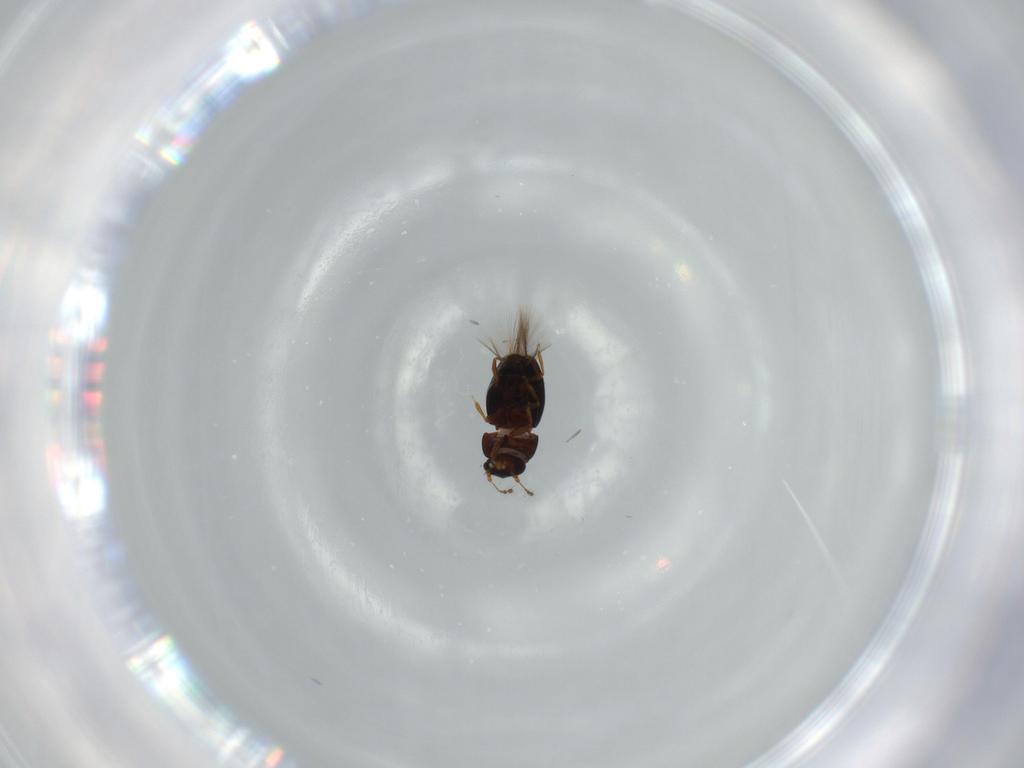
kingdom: Animalia
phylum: Arthropoda
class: Insecta
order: Coleoptera
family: Ptiliidae
